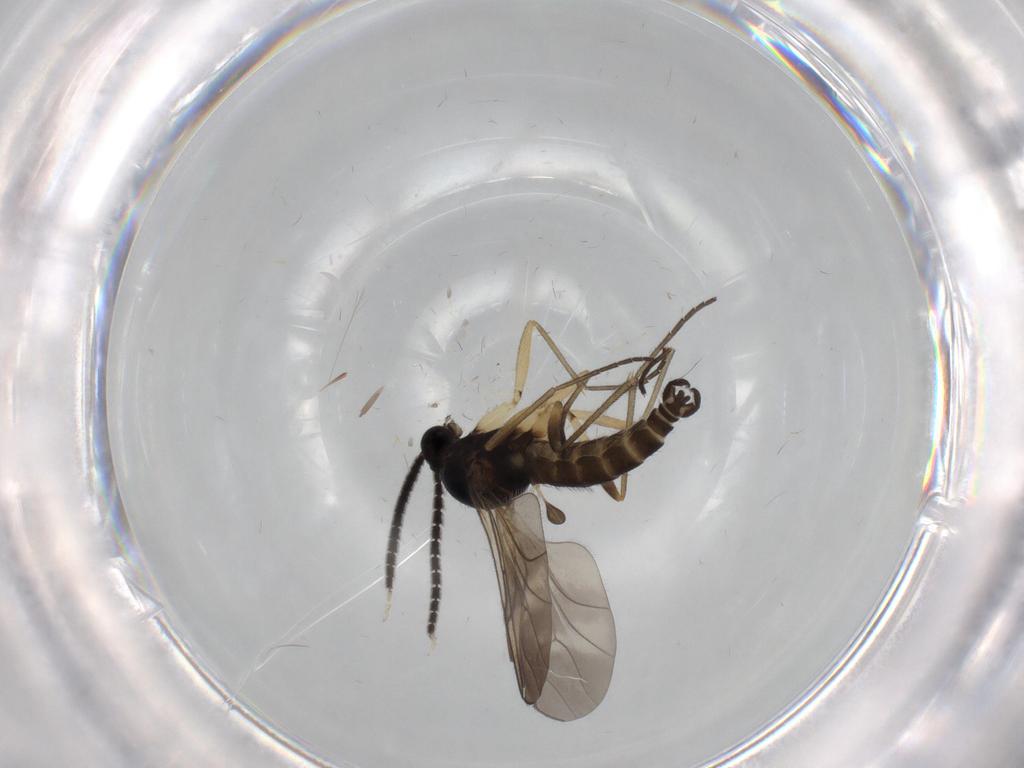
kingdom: Animalia
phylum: Arthropoda
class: Insecta
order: Diptera
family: Sciaridae
